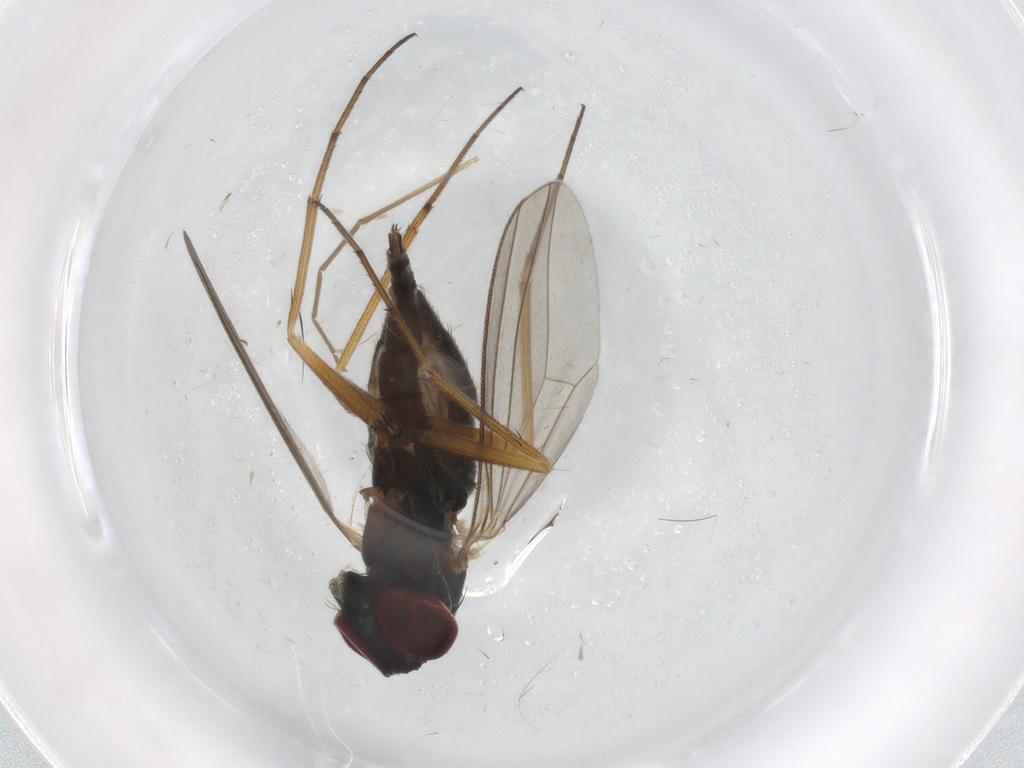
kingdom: Animalia
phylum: Arthropoda
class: Insecta
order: Diptera
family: Dolichopodidae
